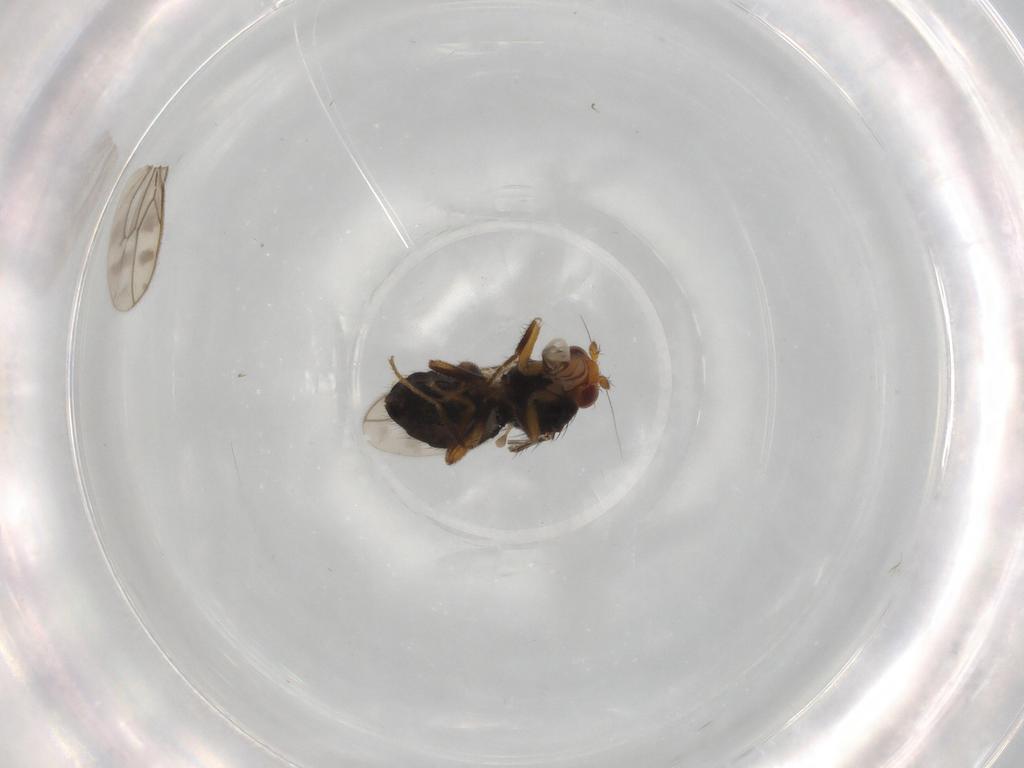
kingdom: Animalia
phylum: Arthropoda
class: Insecta
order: Diptera
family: Sphaeroceridae
